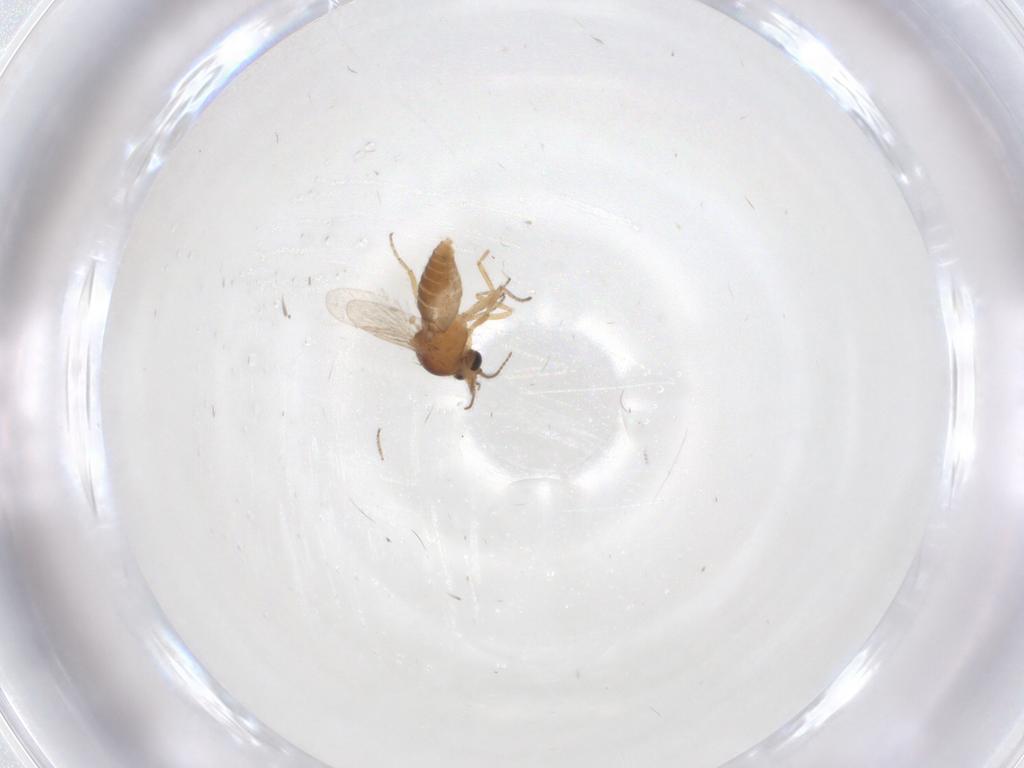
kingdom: Animalia
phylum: Arthropoda
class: Insecta
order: Diptera
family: Ceratopogonidae
